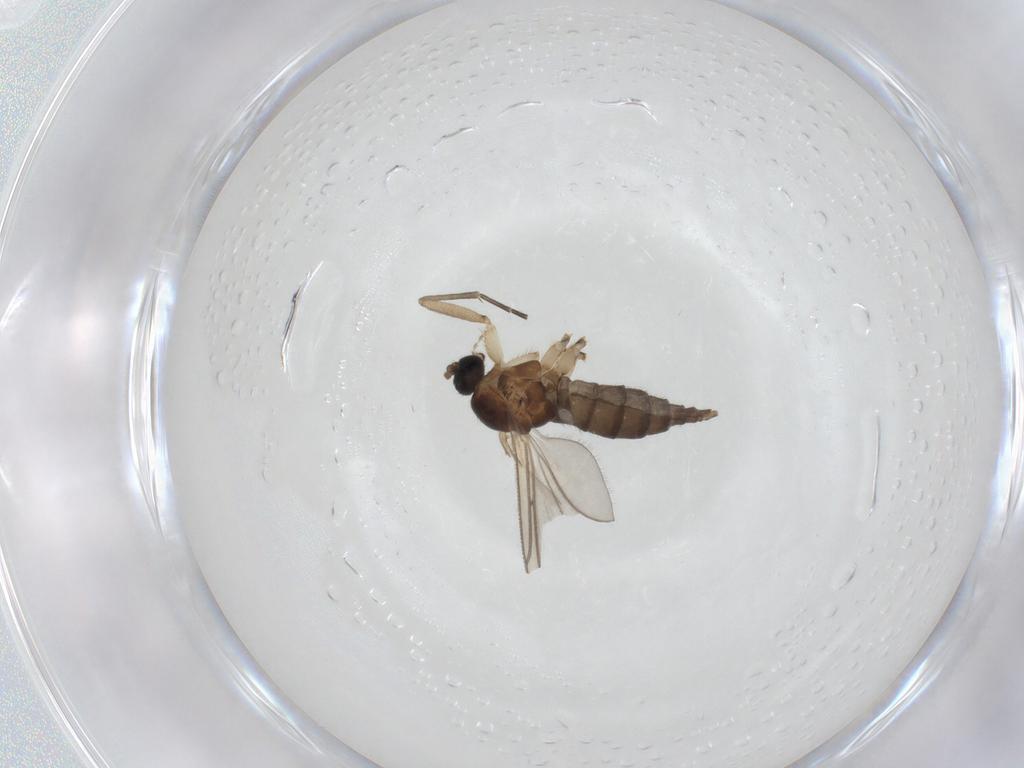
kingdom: Animalia
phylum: Arthropoda
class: Insecta
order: Diptera
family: Sciaridae
